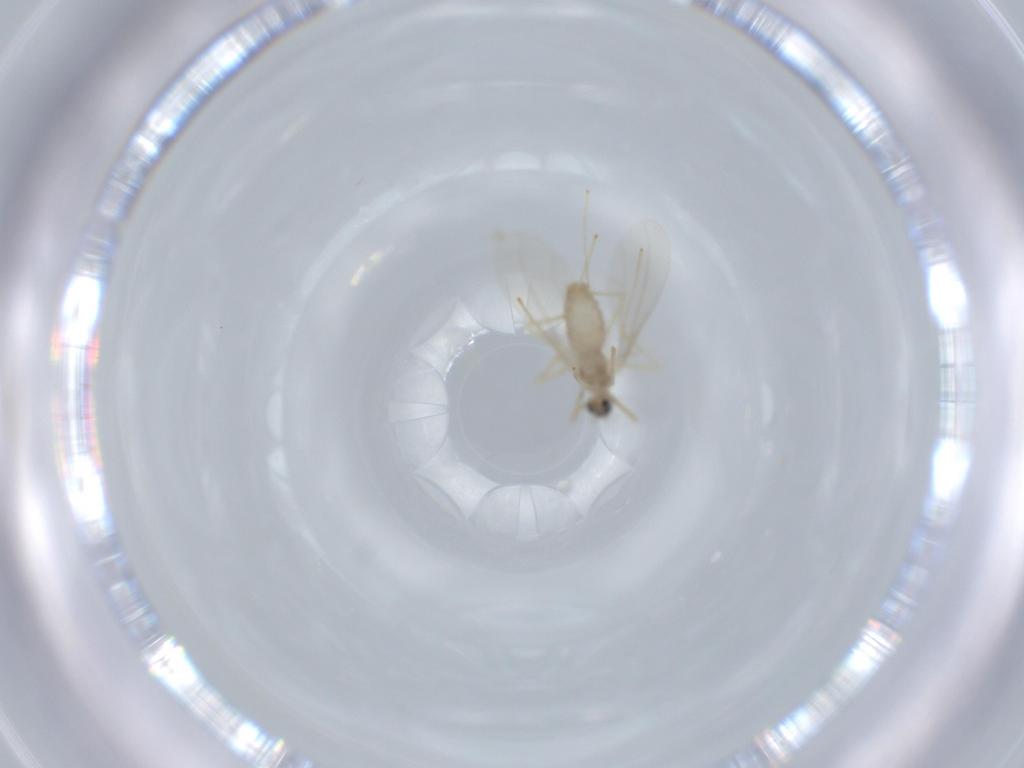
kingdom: Animalia
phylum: Arthropoda
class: Insecta
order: Diptera
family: Cecidomyiidae
